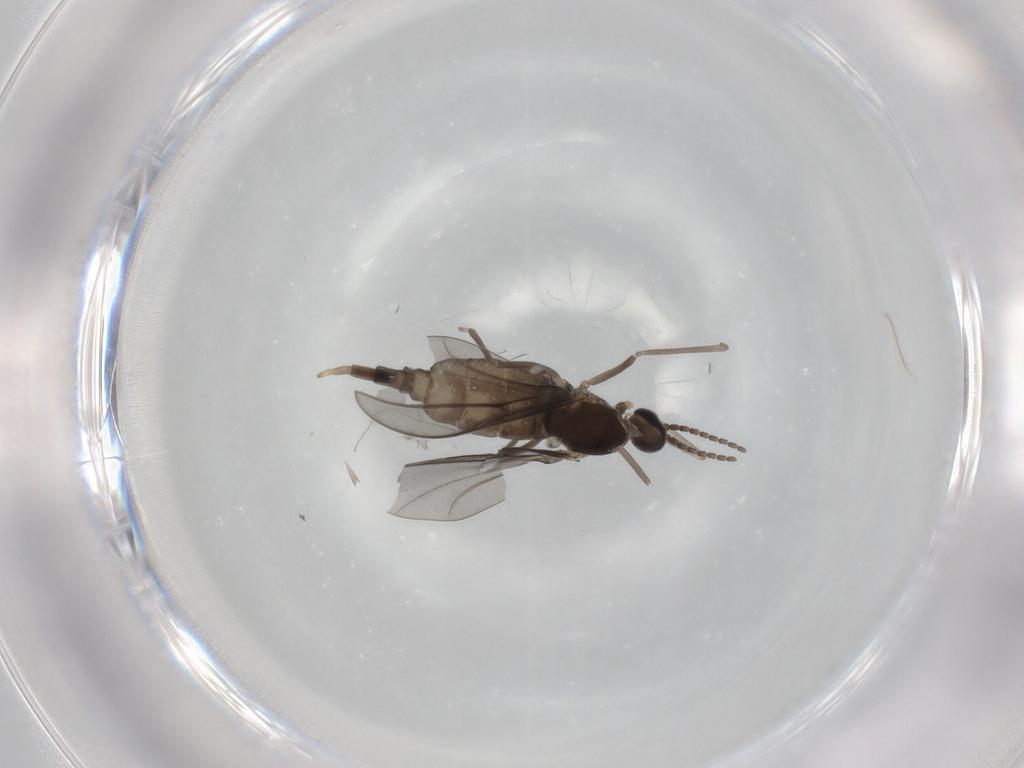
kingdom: Animalia
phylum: Arthropoda
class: Insecta
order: Diptera
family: Cecidomyiidae
